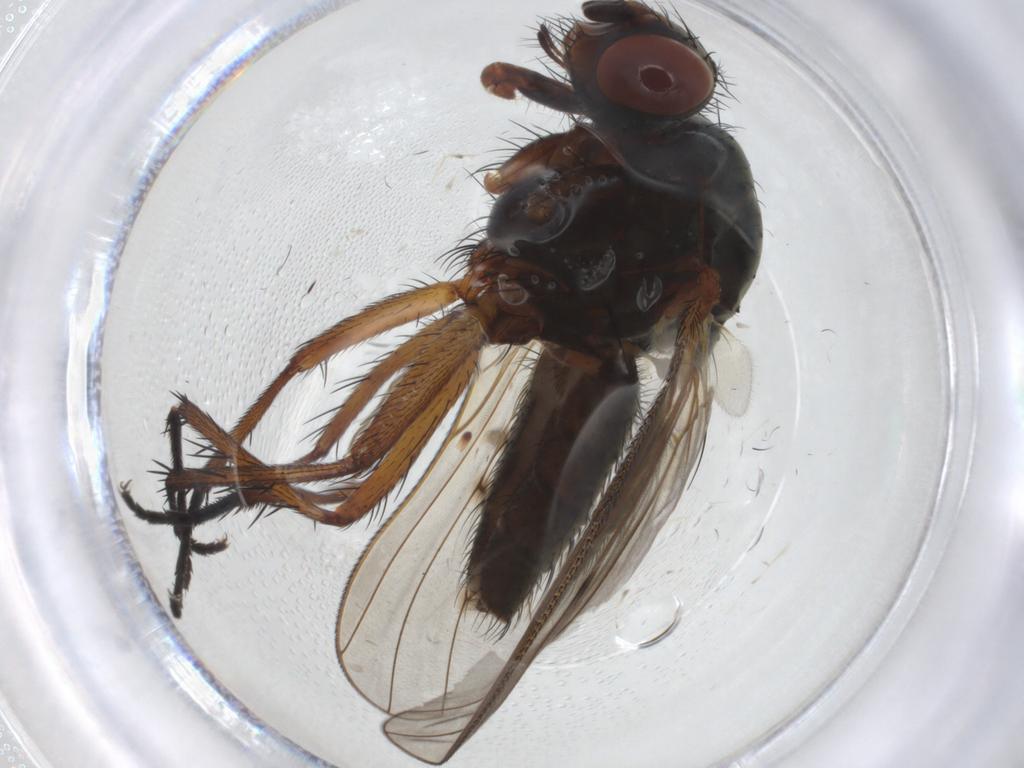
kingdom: Animalia
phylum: Arthropoda
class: Insecta
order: Diptera
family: Anthomyiidae
